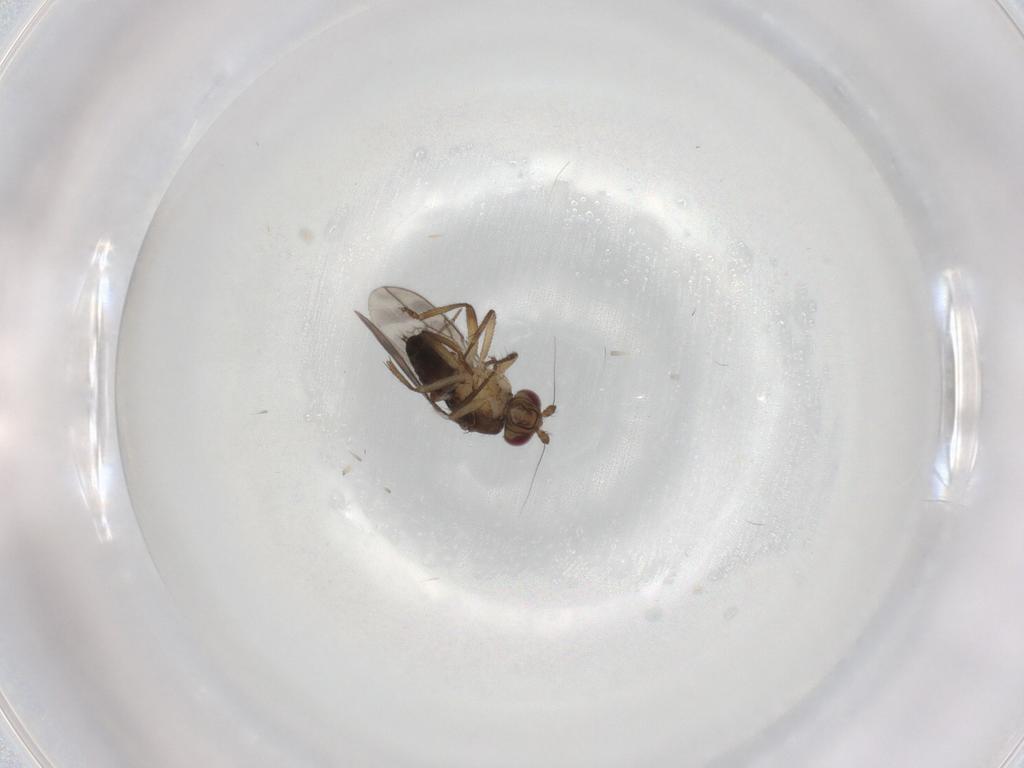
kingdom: Animalia
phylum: Arthropoda
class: Insecta
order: Diptera
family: Sphaeroceridae
